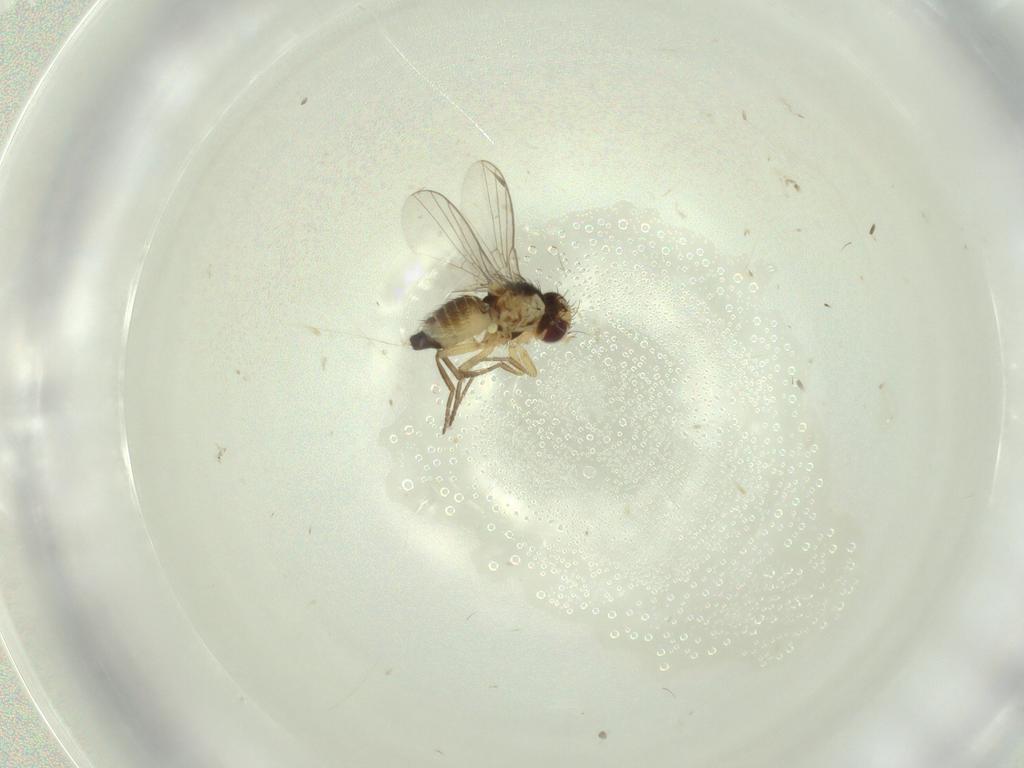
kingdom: Animalia
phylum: Arthropoda
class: Insecta
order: Diptera
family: Agromyzidae
